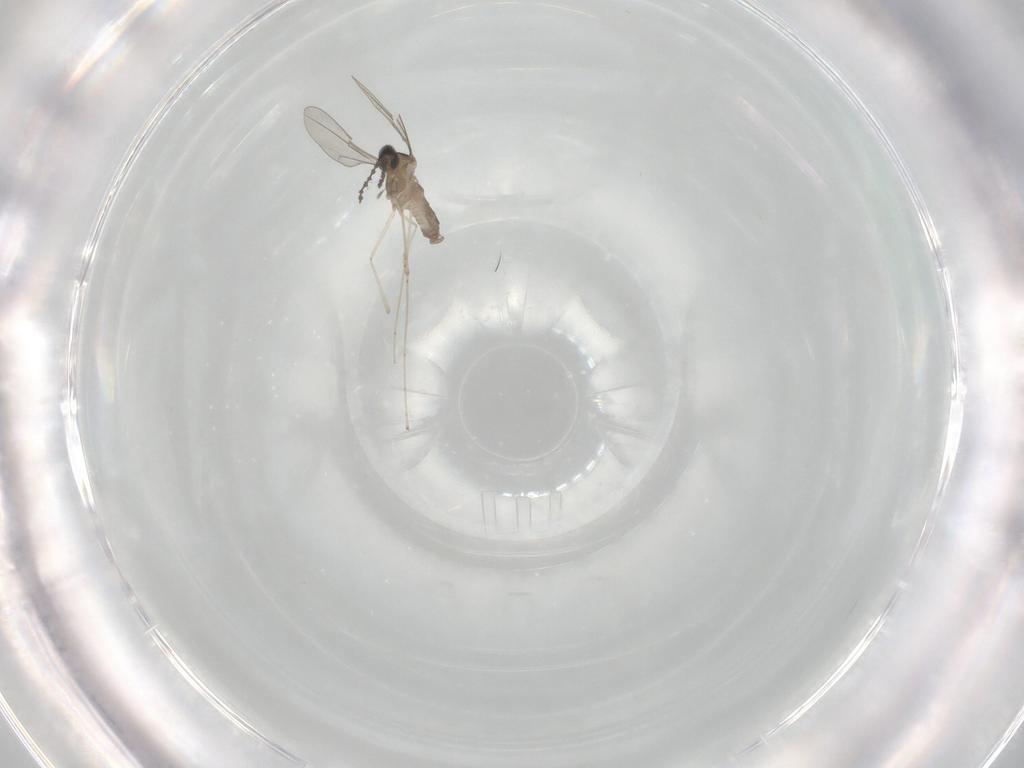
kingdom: Animalia
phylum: Arthropoda
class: Insecta
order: Diptera
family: Cecidomyiidae
